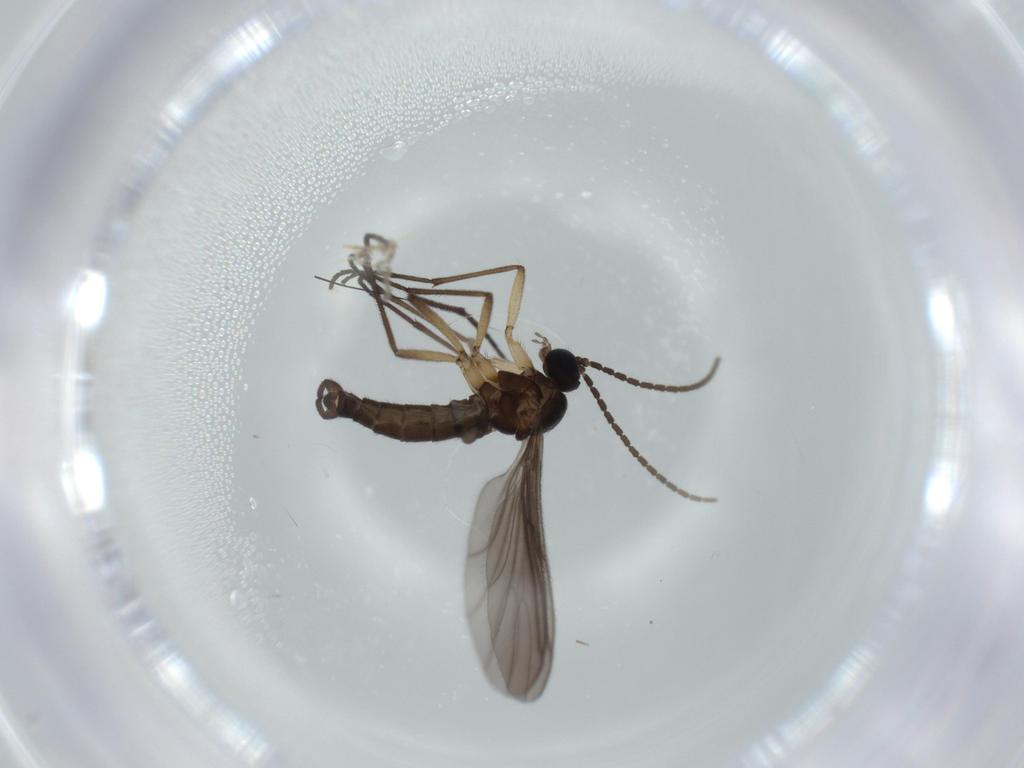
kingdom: Animalia
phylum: Arthropoda
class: Insecta
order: Diptera
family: Sciaridae
